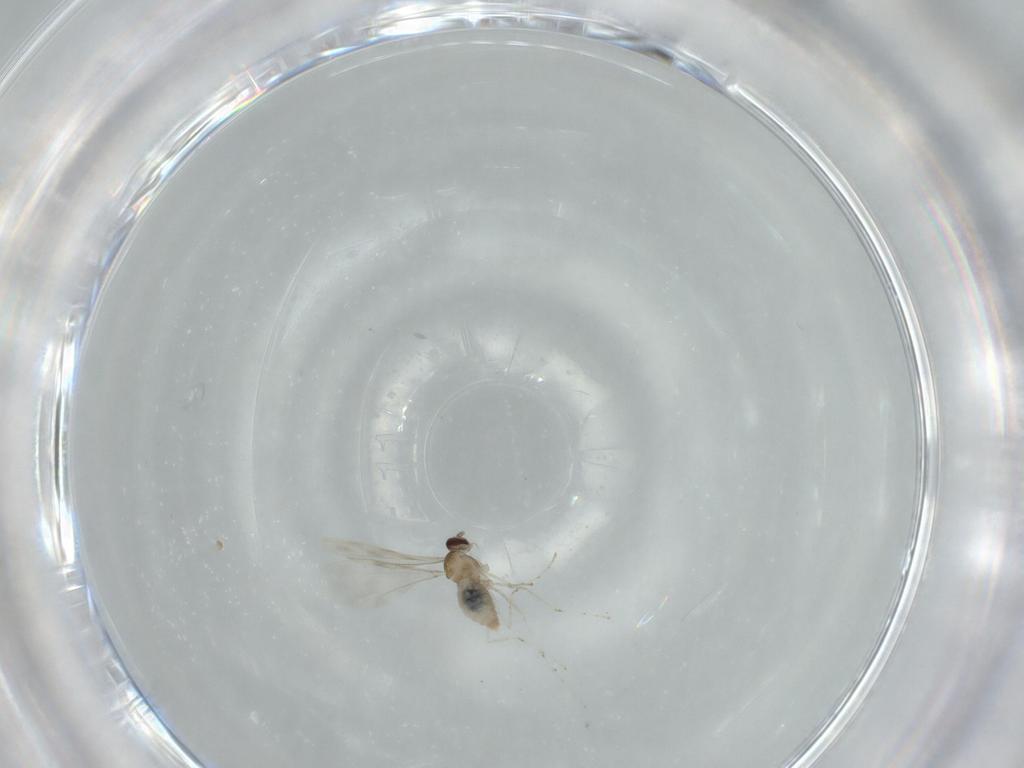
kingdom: Animalia
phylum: Arthropoda
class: Insecta
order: Diptera
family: Cecidomyiidae
